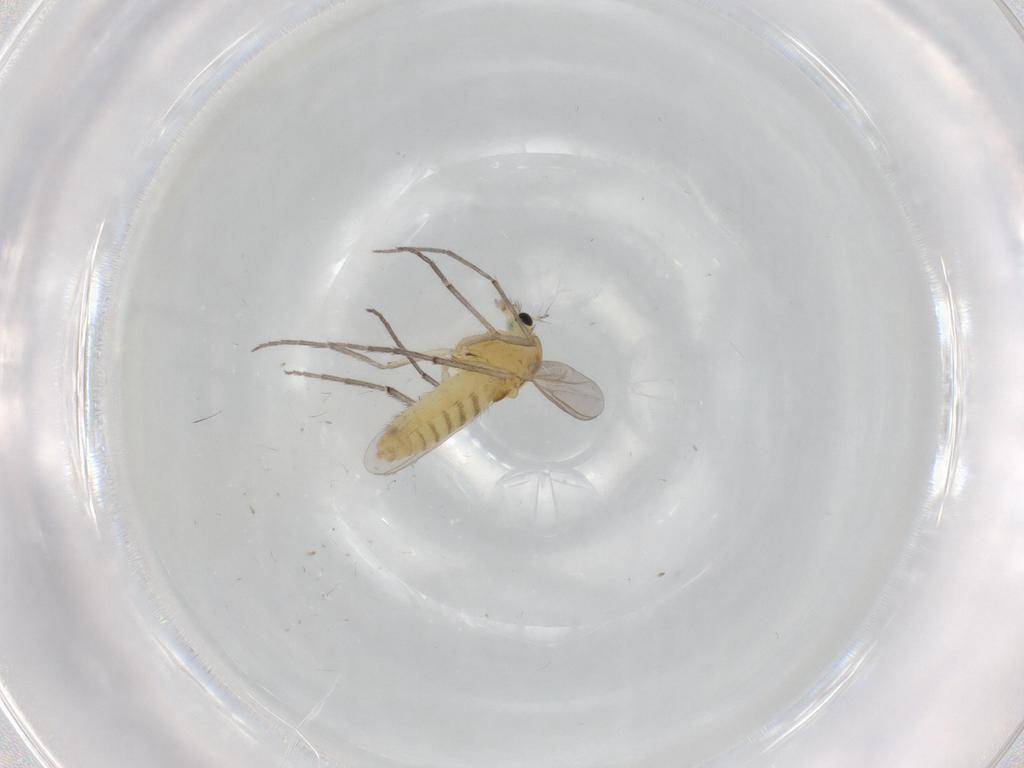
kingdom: Animalia
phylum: Arthropoda
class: Insecta
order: Diptera
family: Chironomidae
